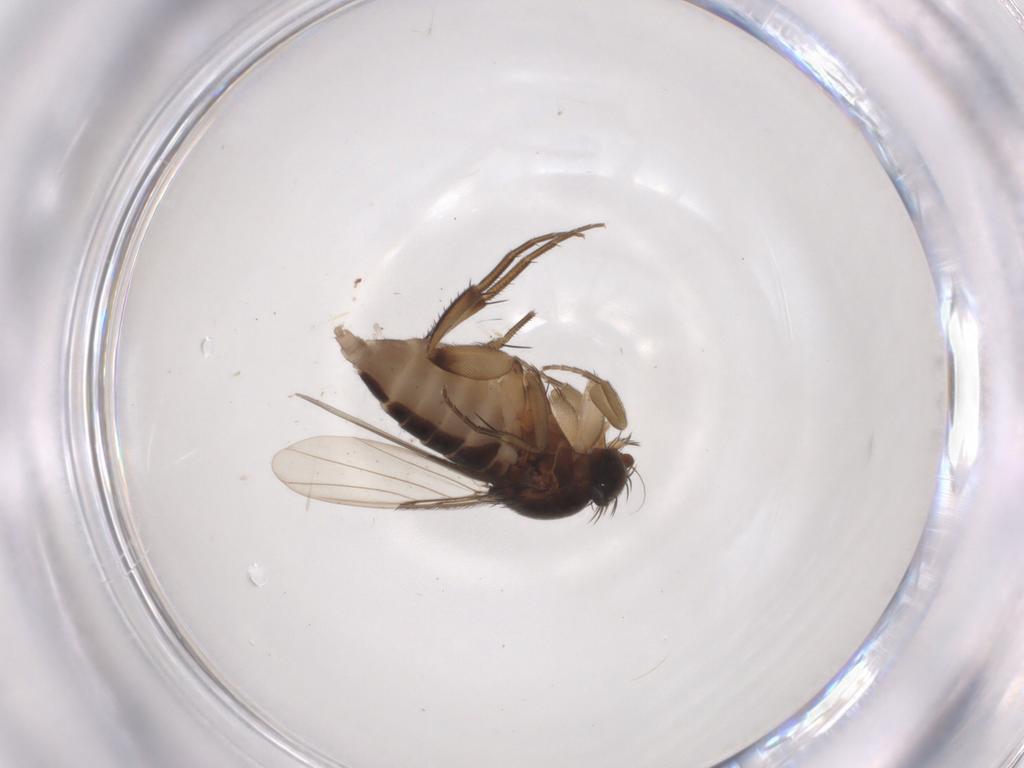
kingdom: Animalia
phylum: Arthropoda
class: Insecta
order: Diptera
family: Phoridae
